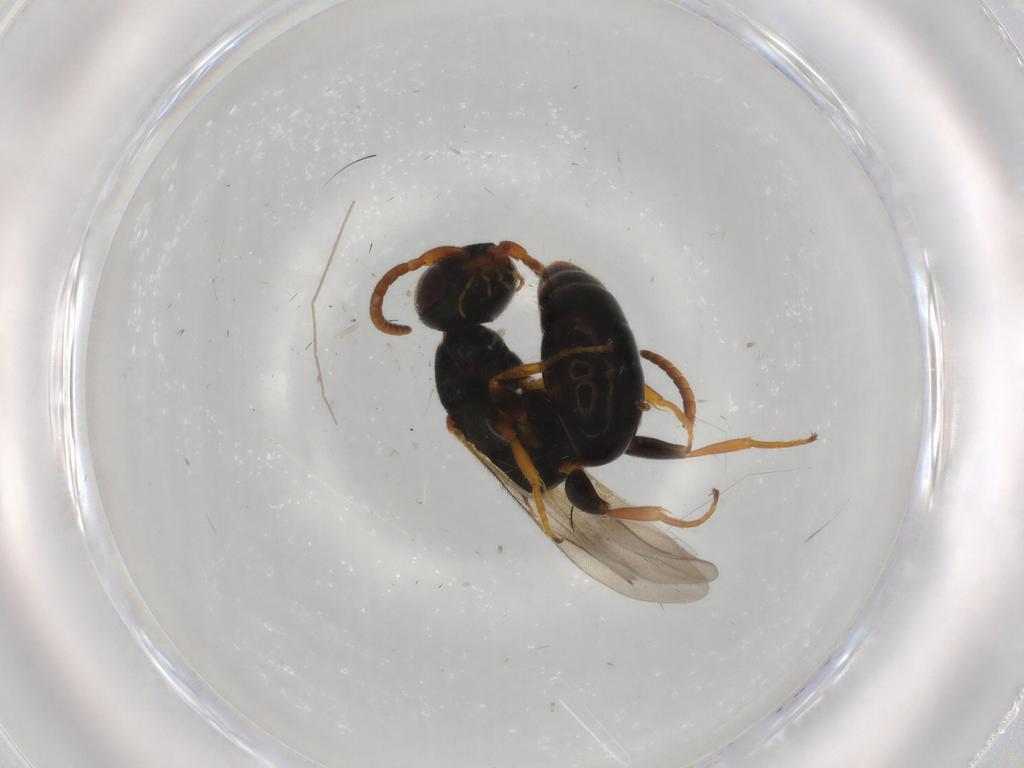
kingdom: Animalia
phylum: Arthropoda
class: Insecta
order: Hymenoptera
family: Bethylidae
